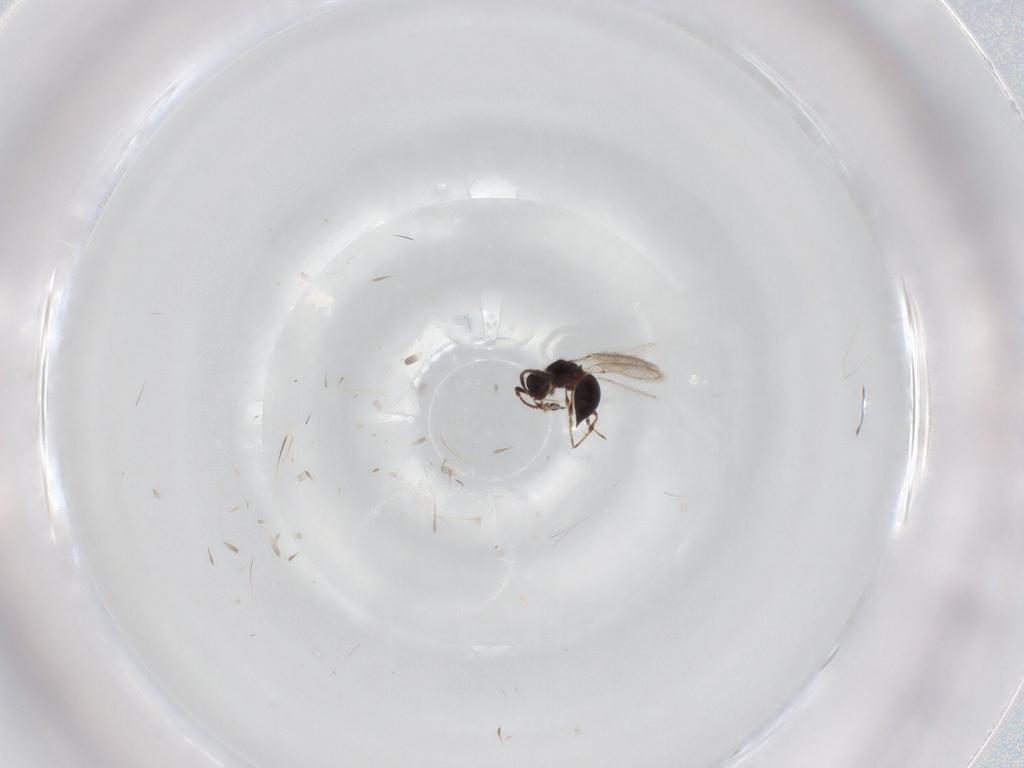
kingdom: Animalia
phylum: Arthropoda
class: Insecta
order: Hymenoptera
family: Diapriidae
